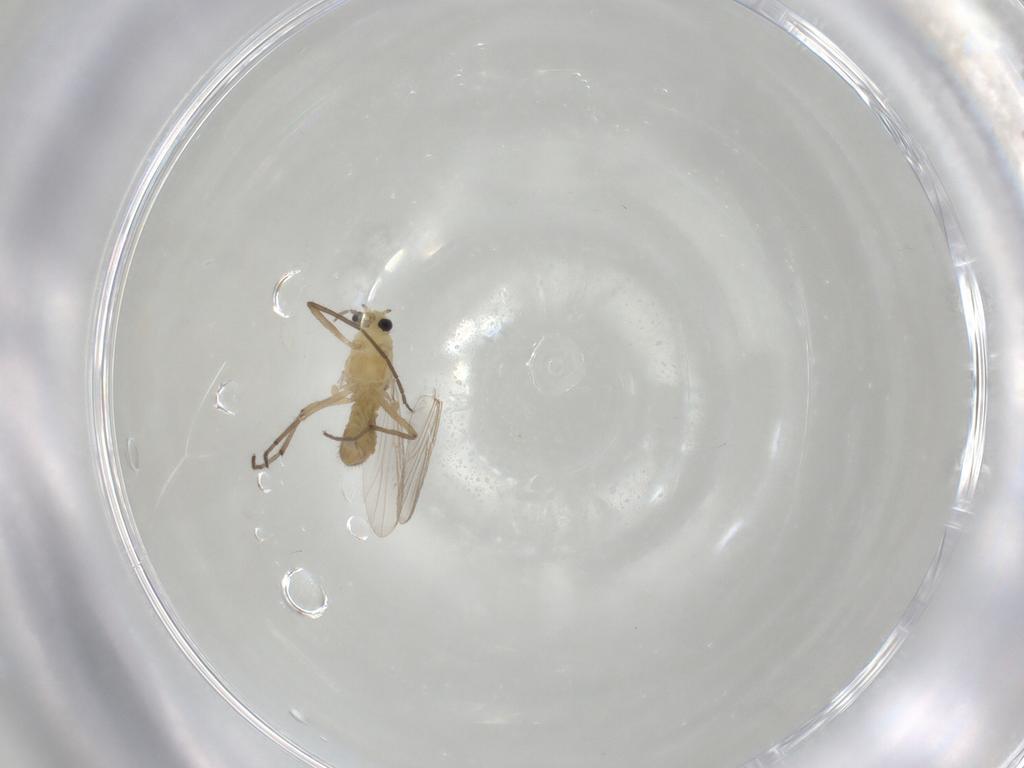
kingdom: Animalia
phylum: Arthropoda
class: Insecta
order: Diptera
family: Chironomidae
